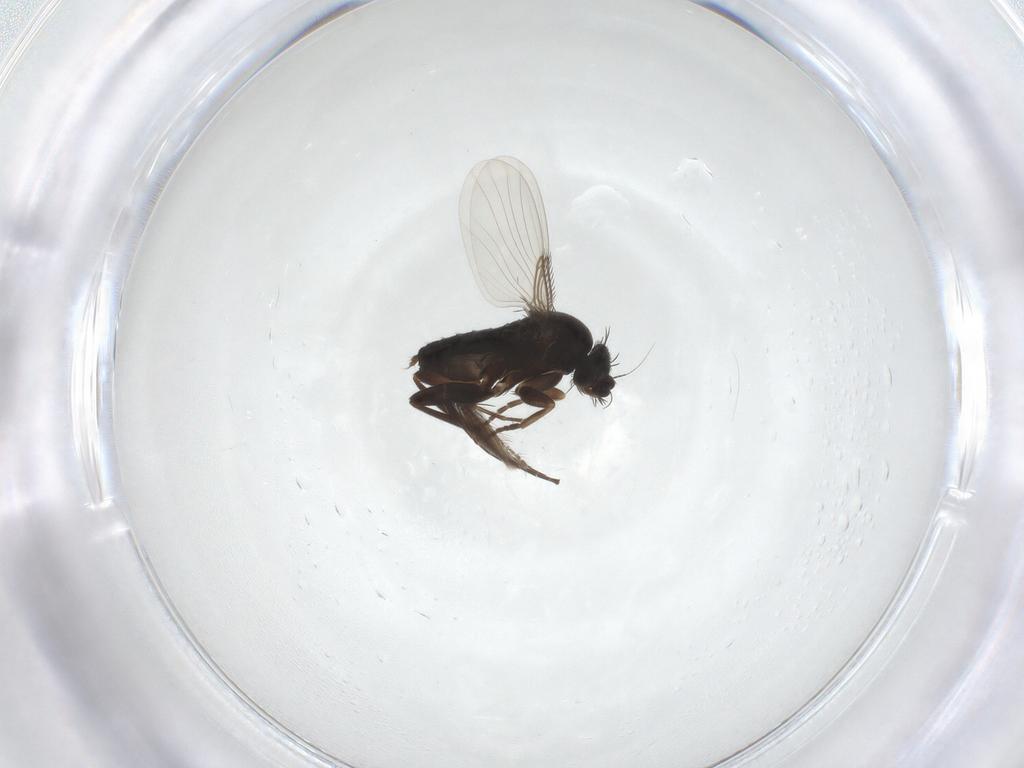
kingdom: Animalia
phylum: Arthropoda
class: Insecta
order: Diptera
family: Phoridae
